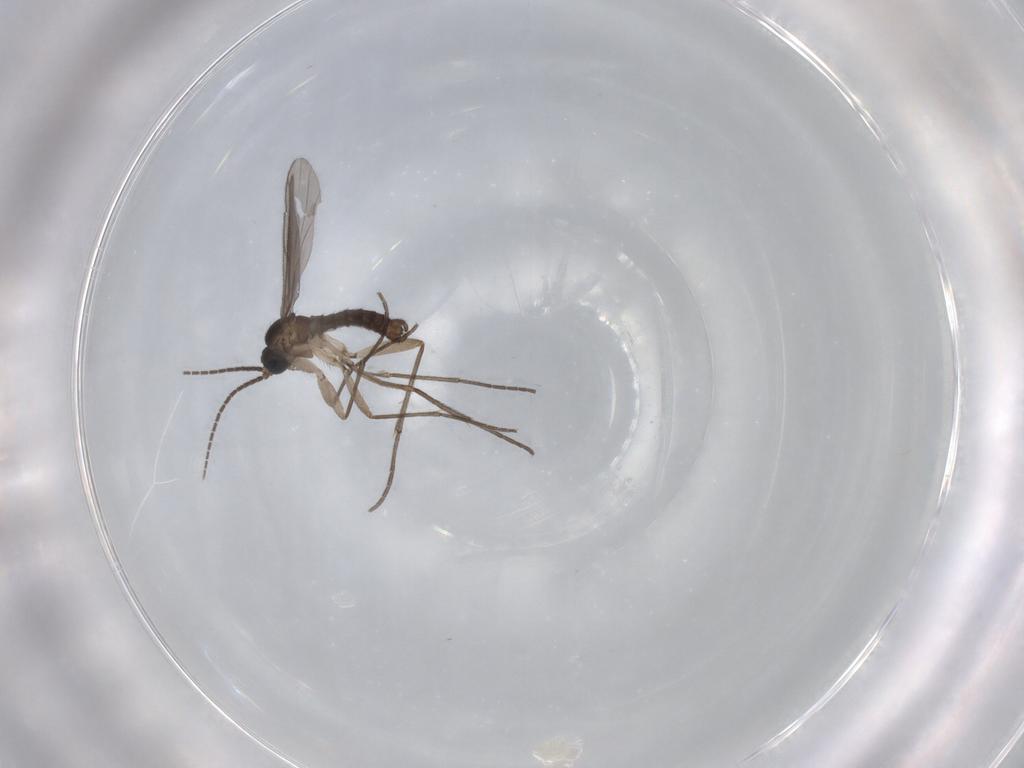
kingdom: Animalia
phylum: Arthropoda
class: Insecta
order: Diptera
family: Sciaridae
